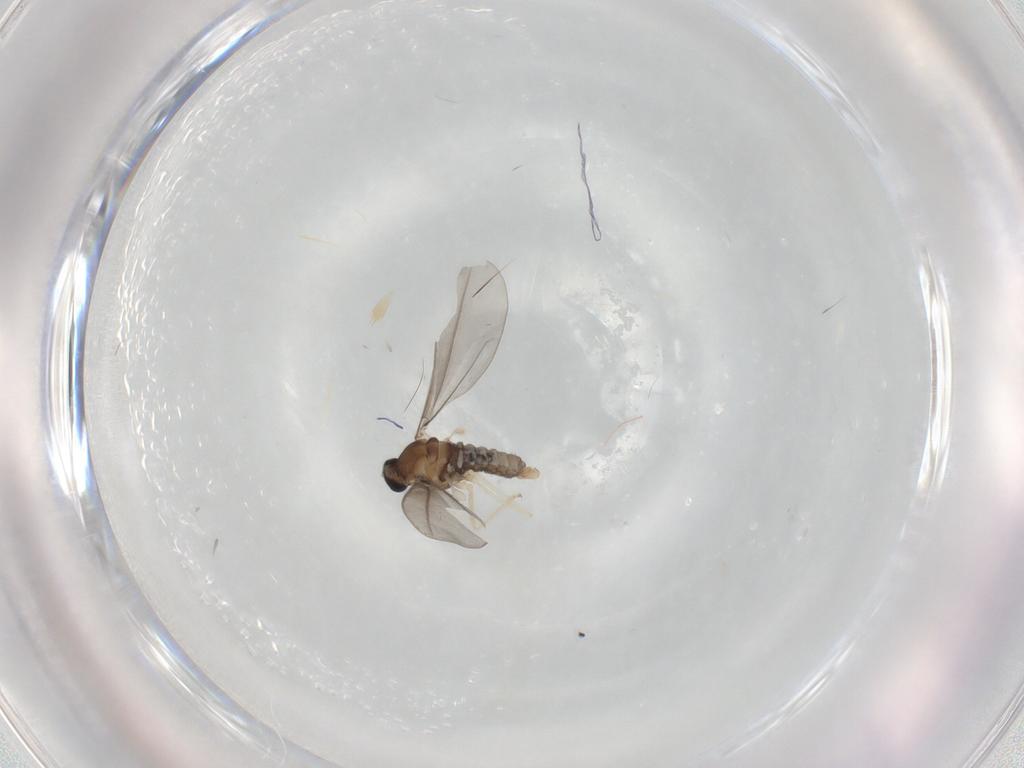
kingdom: Animalia
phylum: Arthropoda
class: Insecta
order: Diptera
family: Cecidomyiidae
